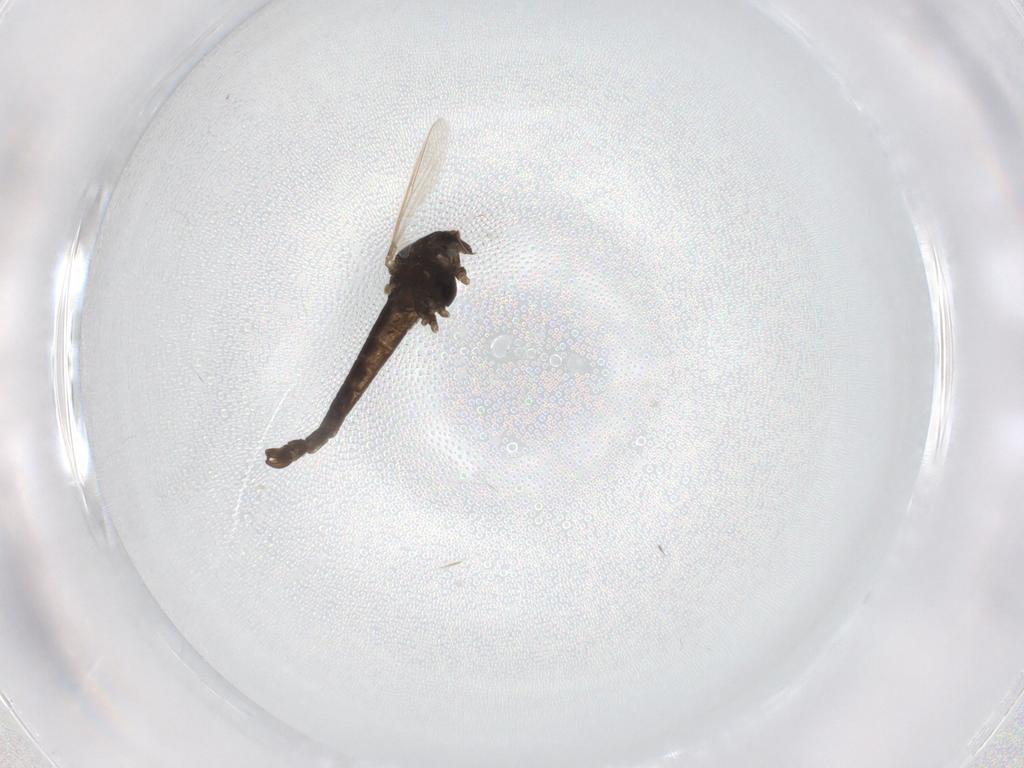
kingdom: Animalia
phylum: Arthropoda
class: Insecta
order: Diptera
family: Chironomidae
